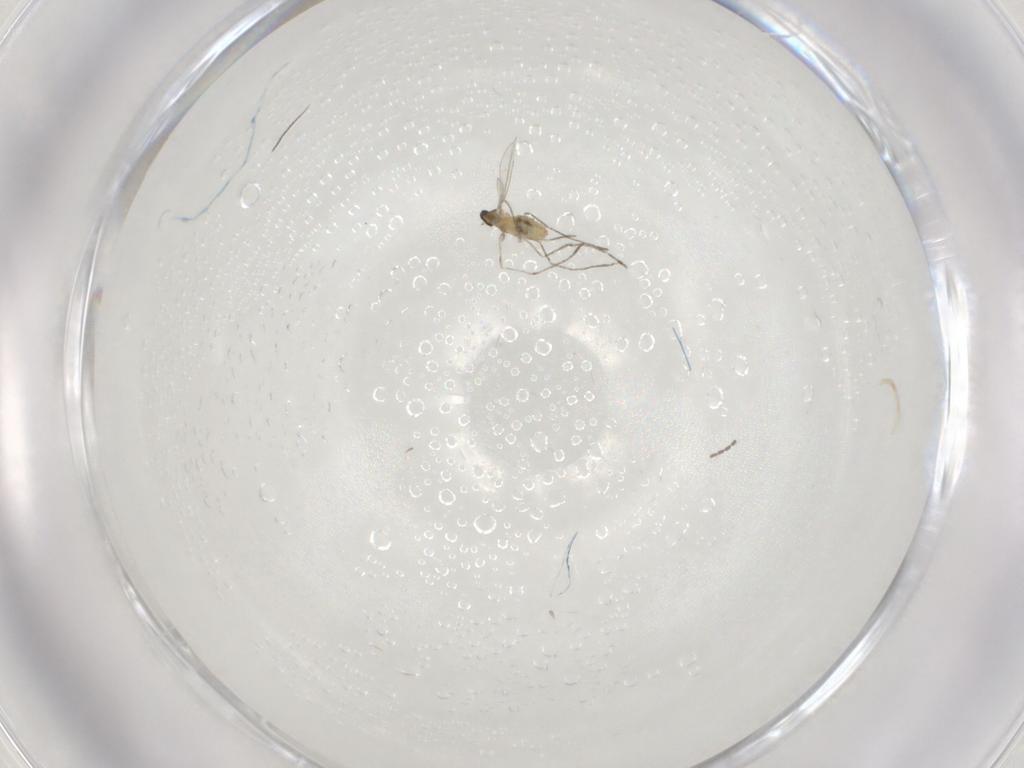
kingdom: Animalia
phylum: Arthropoda
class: Insecta
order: Diptera
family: Cecidomyiidae
